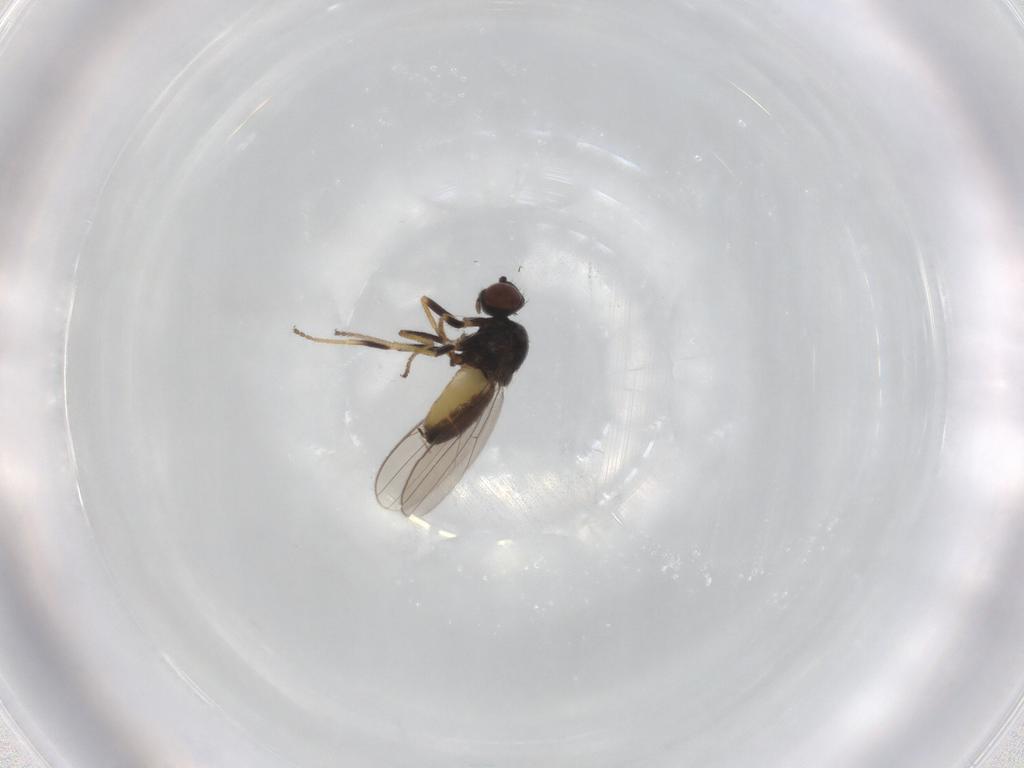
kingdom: Animalia
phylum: Arthropoda
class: Insecta
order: Diptera
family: Chloropidae
